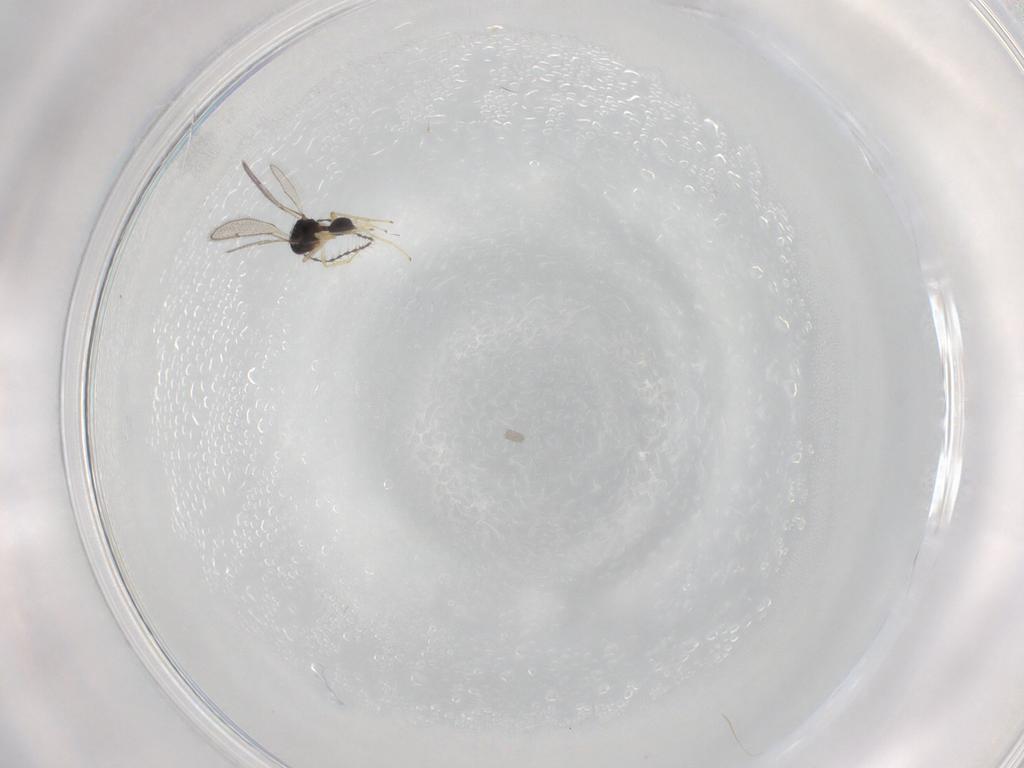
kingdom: Animalia
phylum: Arthropoda
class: Insecta
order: Hymenoptera
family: Diparidae
